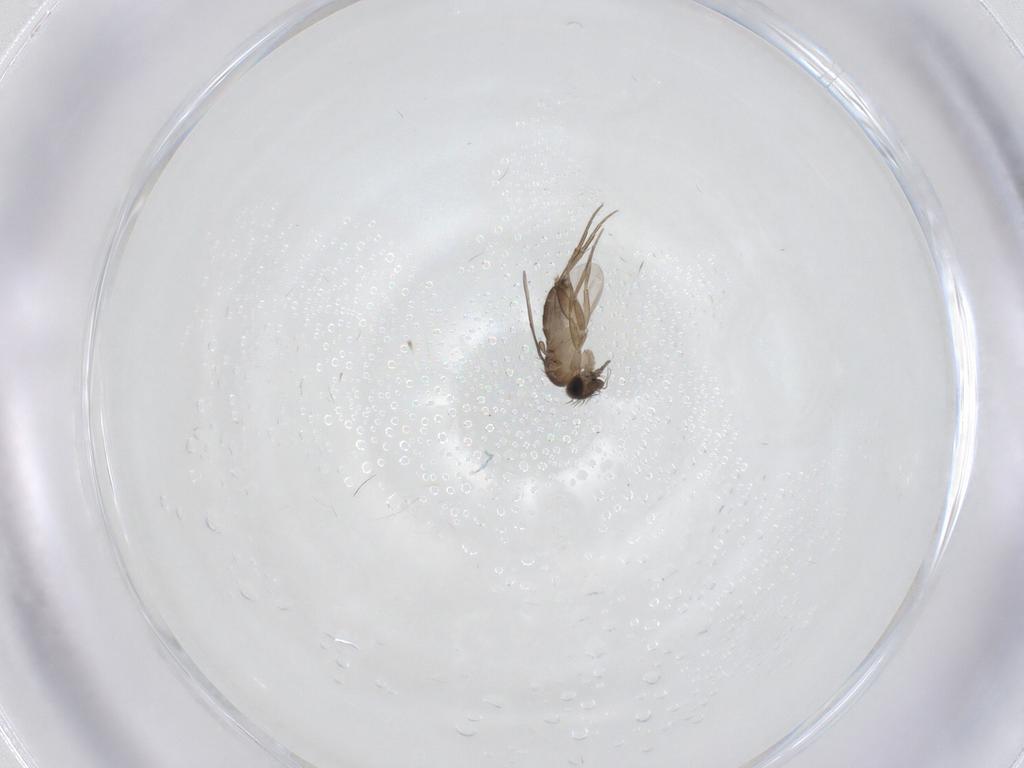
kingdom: Animalia
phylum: Arthropoda
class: Insecta
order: Diptera
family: Phoridae
